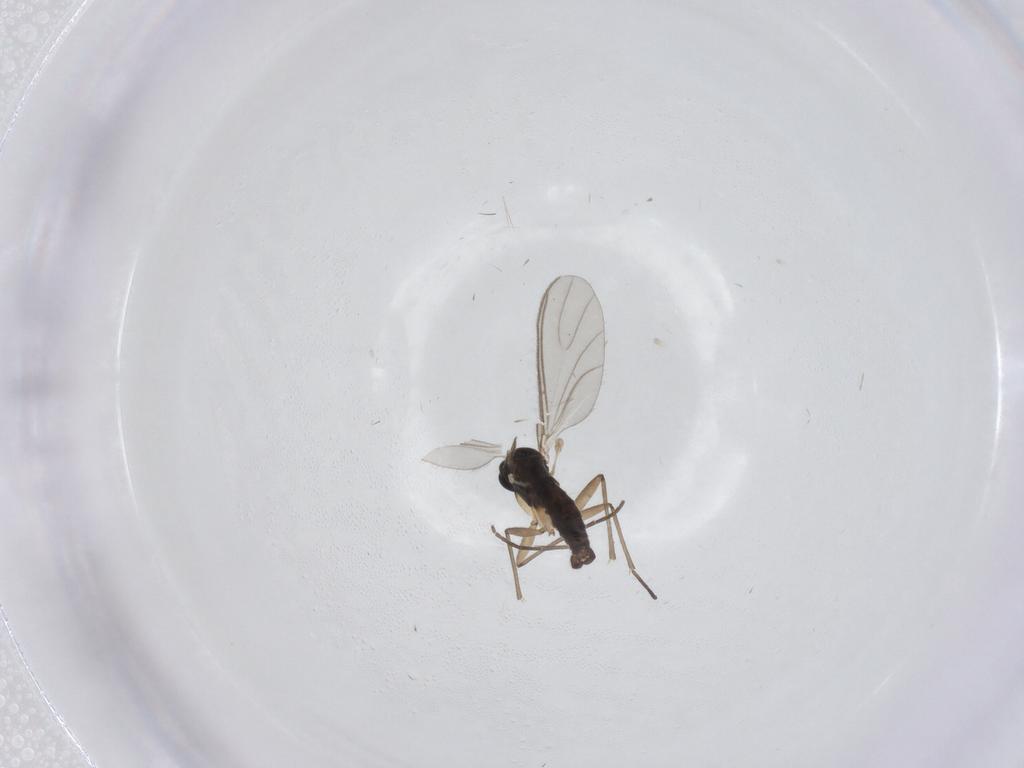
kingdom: Animalia
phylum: Arthropoda
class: Insecta
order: Diptera
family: Sciaridae
